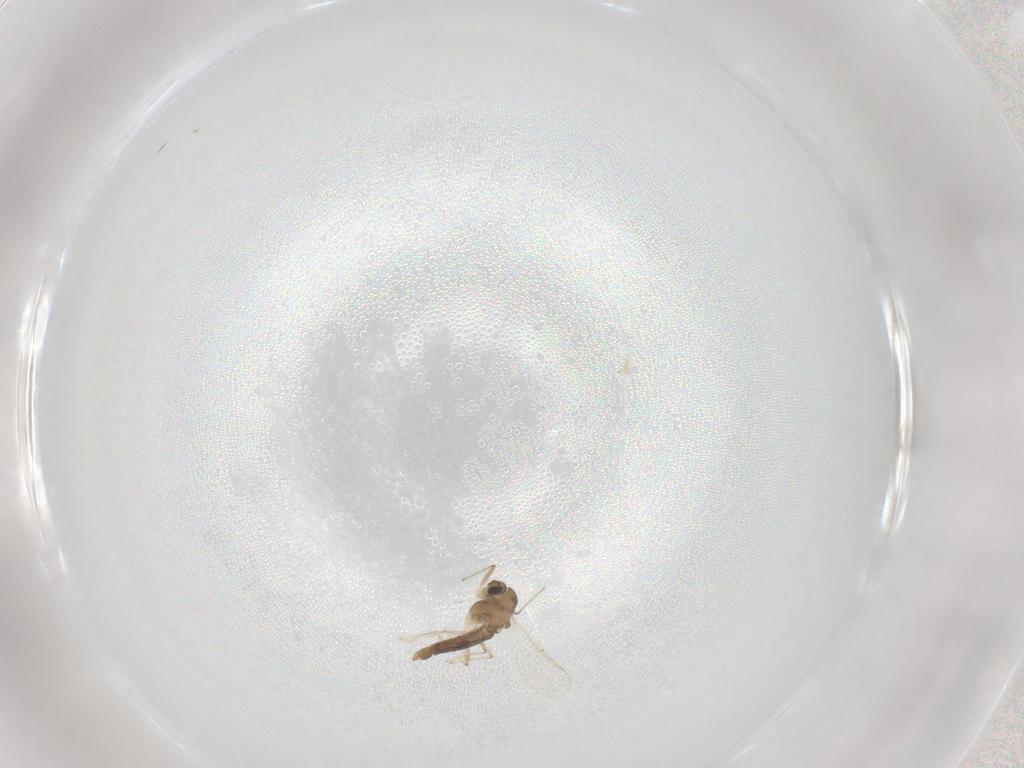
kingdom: Animalia
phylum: Arthropoda
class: Insecta
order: Diptera
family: Chironomidae
